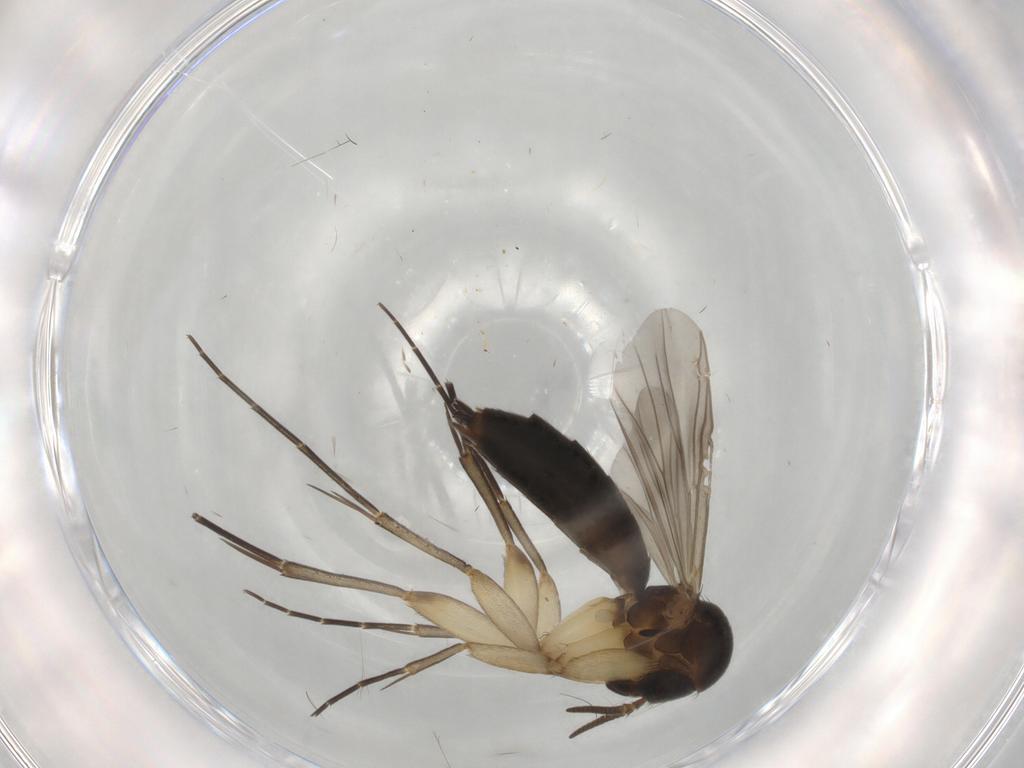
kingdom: Animalia
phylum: Arthropoda
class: Insecta
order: Diptera
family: Mycetophilidae
